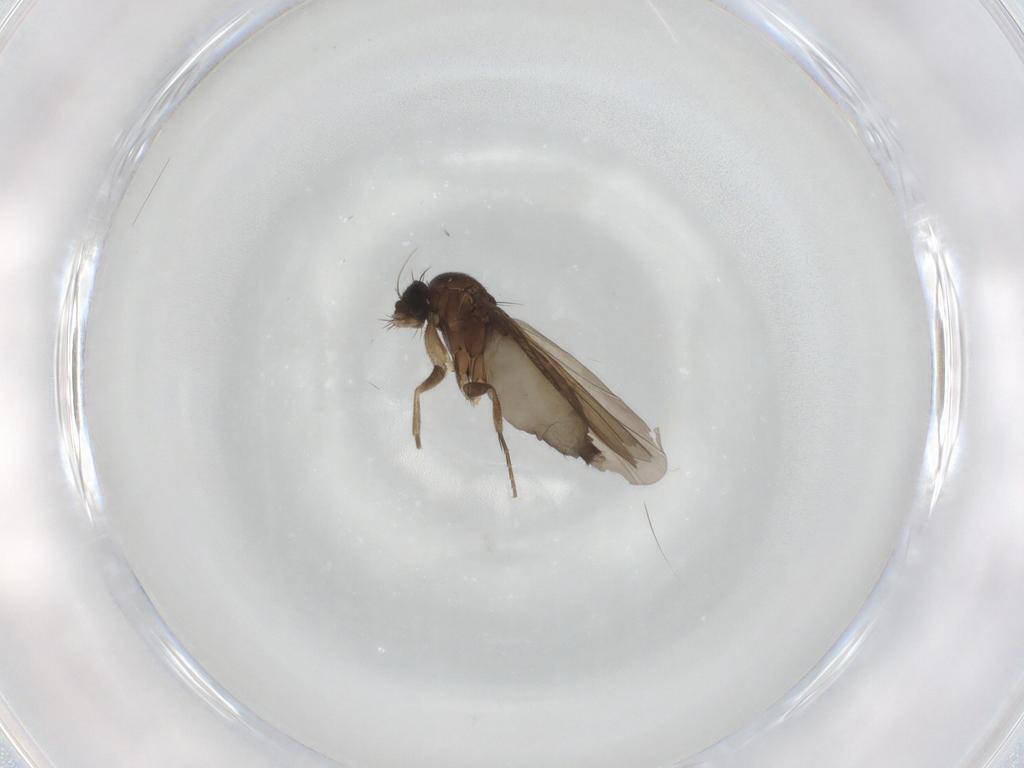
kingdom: Animalia
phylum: Arthropoda
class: Insecta
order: Diptera
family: Phoridae
